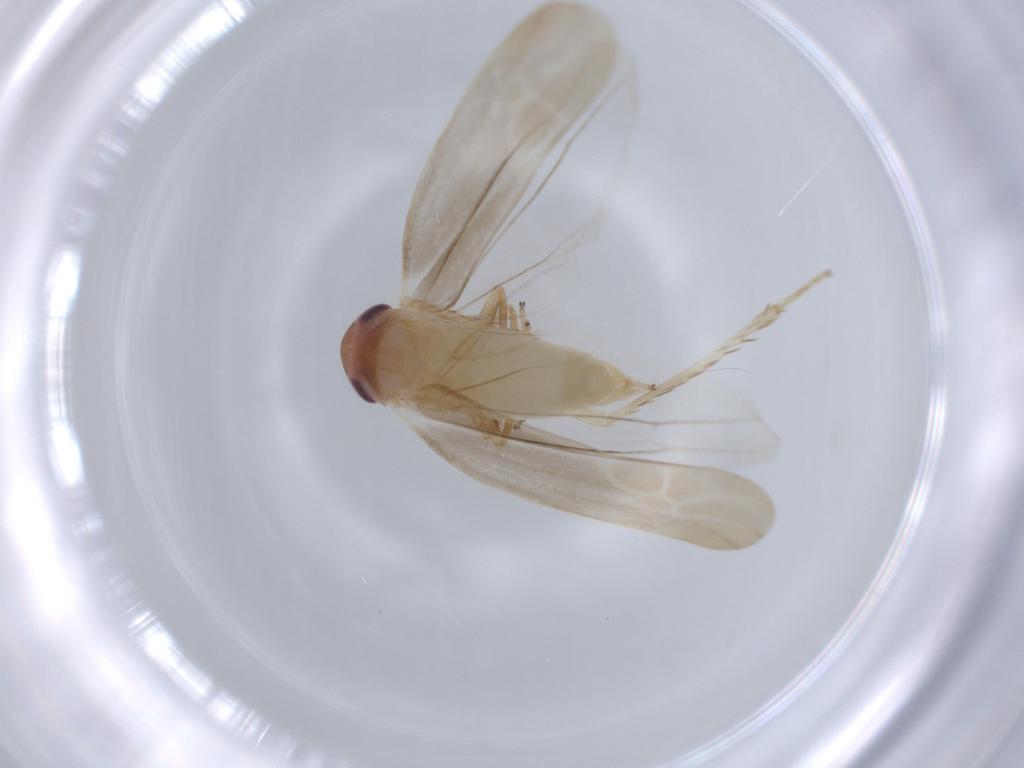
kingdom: Animalia
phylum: Arthropoda
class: Insecta
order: Hemiptera
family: Cicadellidae
